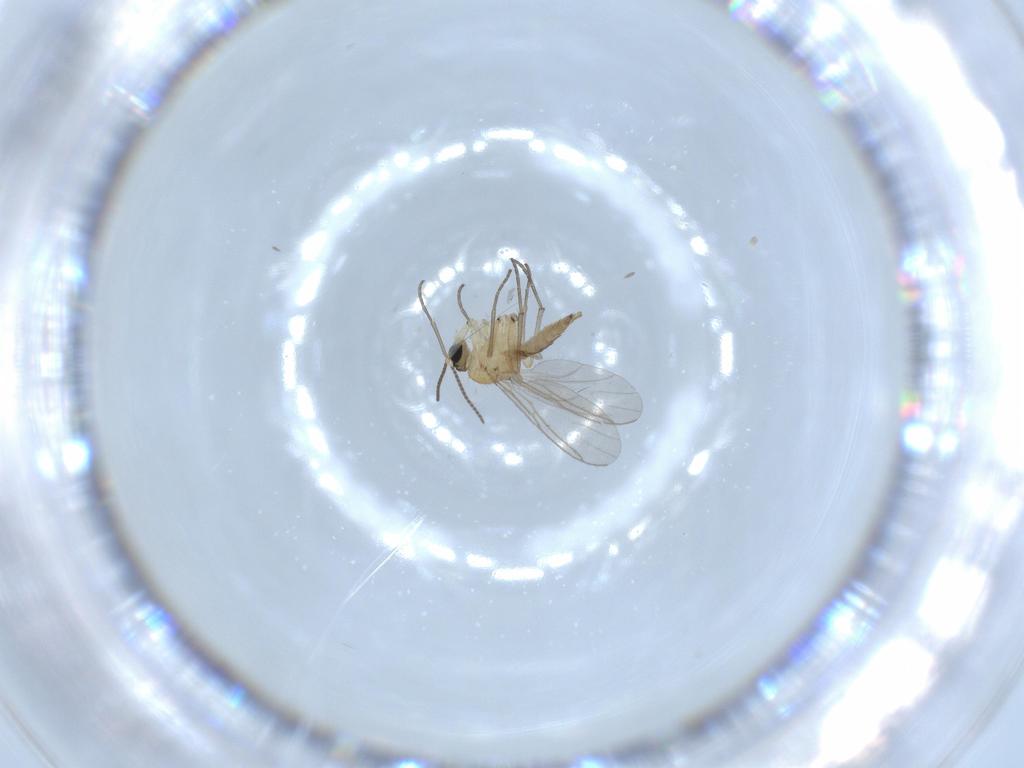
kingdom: Animalia
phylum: Arthropoda
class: Insecta
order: Diptera
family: Sciaridae
